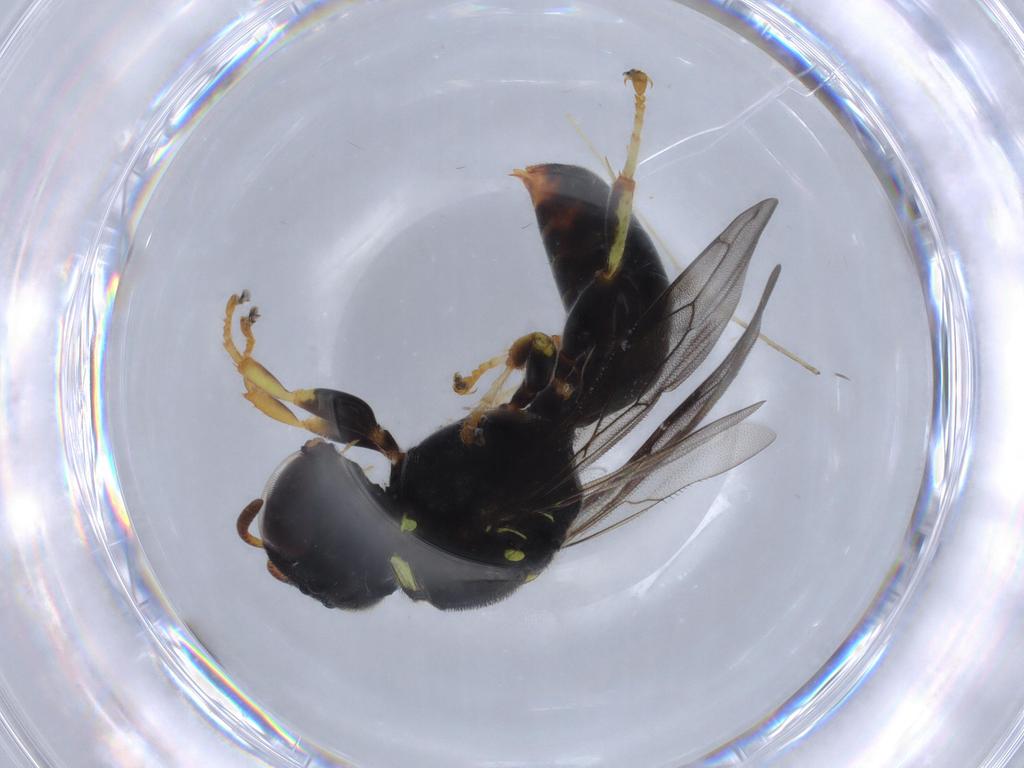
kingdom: Animalia
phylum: Arthropoda
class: Insecta
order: Hymenoptera
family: Crabronidae
